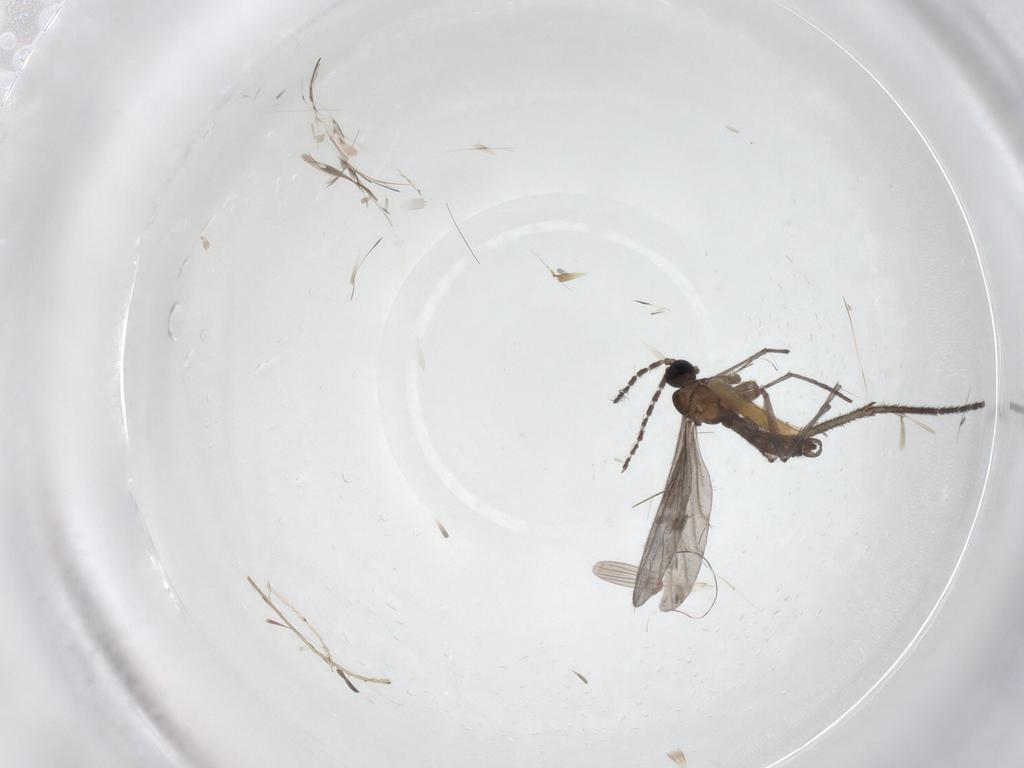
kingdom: Animalia
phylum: Arthropoda
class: Insecta
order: Diptera
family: Sciaridae
